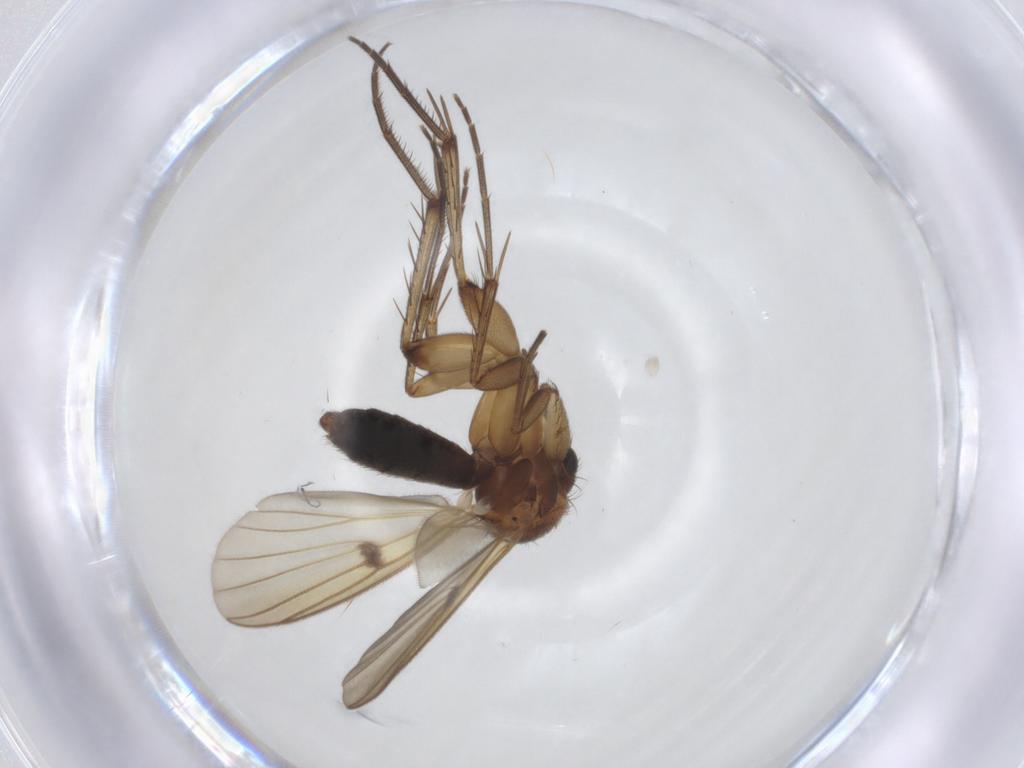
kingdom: Animalia
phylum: Arthropoda
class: Insecta
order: Diptera
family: Mycetophilidae
